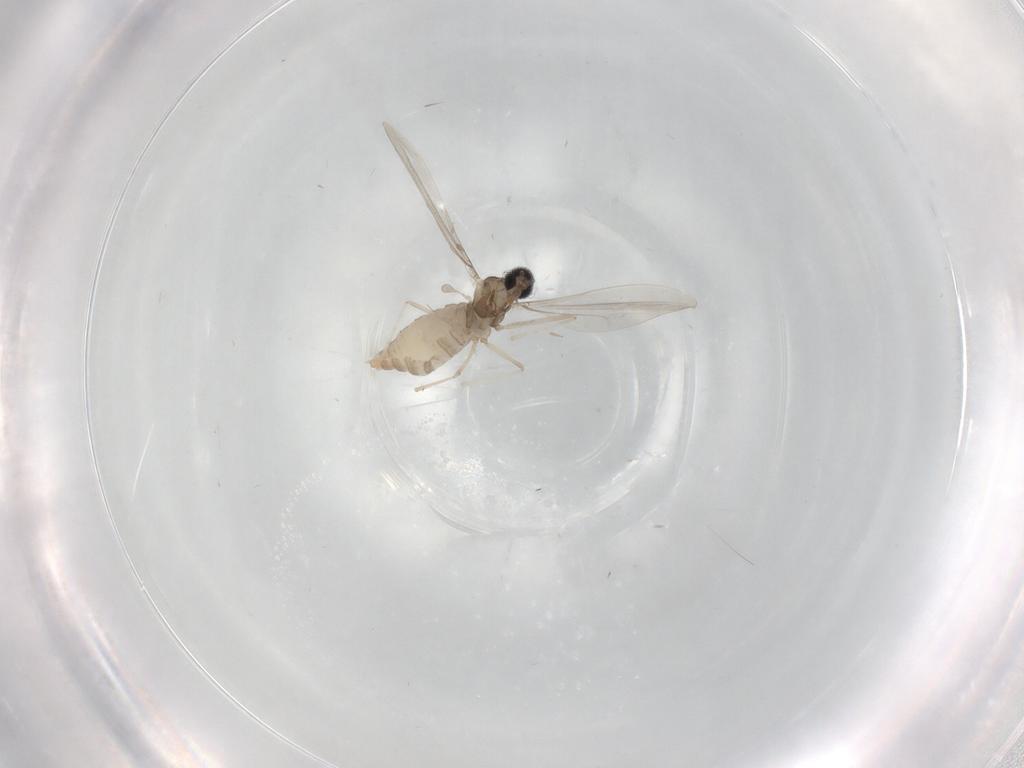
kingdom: Animalia
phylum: Arthropoda
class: Insecta
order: Diptera
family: Cecidomyiidae
